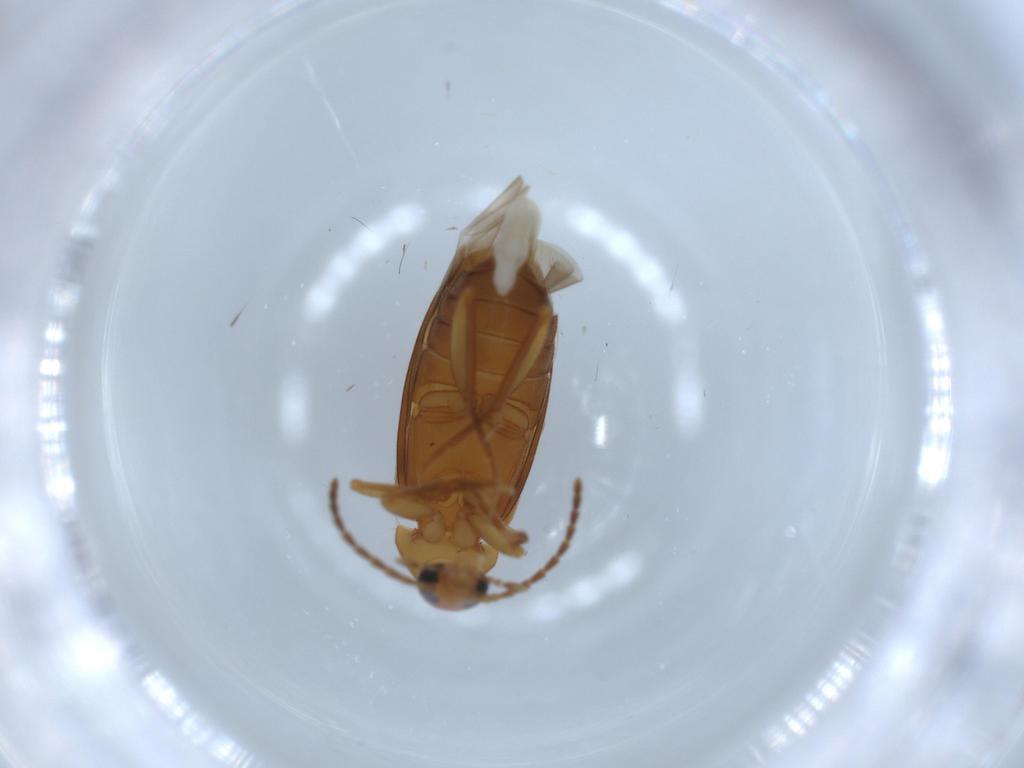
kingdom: Animalia
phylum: Arthropoda
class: Insecta
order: Coleoptera
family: Scraptiidae
